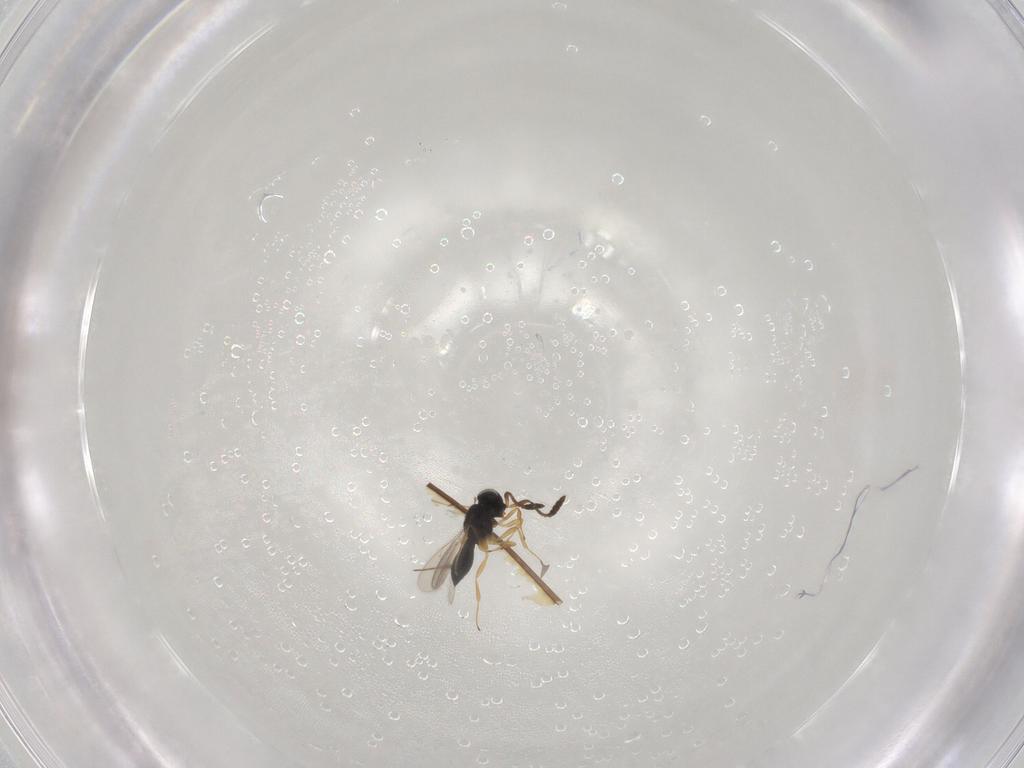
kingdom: Animalia
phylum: Arthropoda
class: Insecta
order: Hymenoptera
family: Scelionidae
